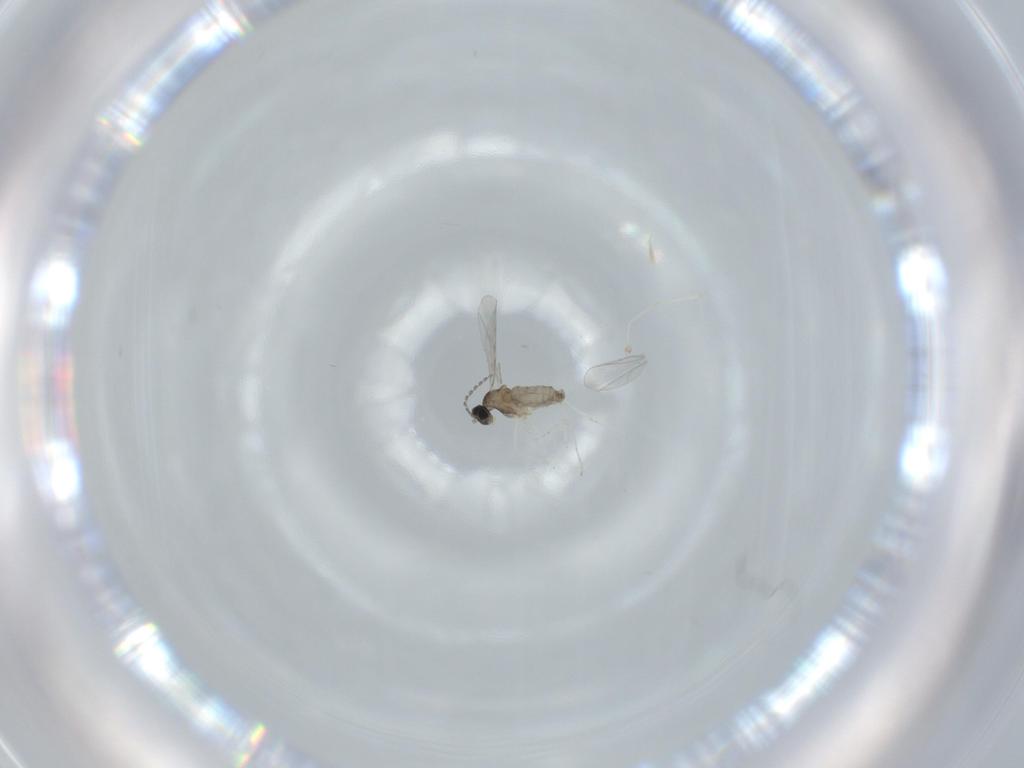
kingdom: Animalia
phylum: Arthropoda
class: Insecta
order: Diptera
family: Cecidomyiidae
